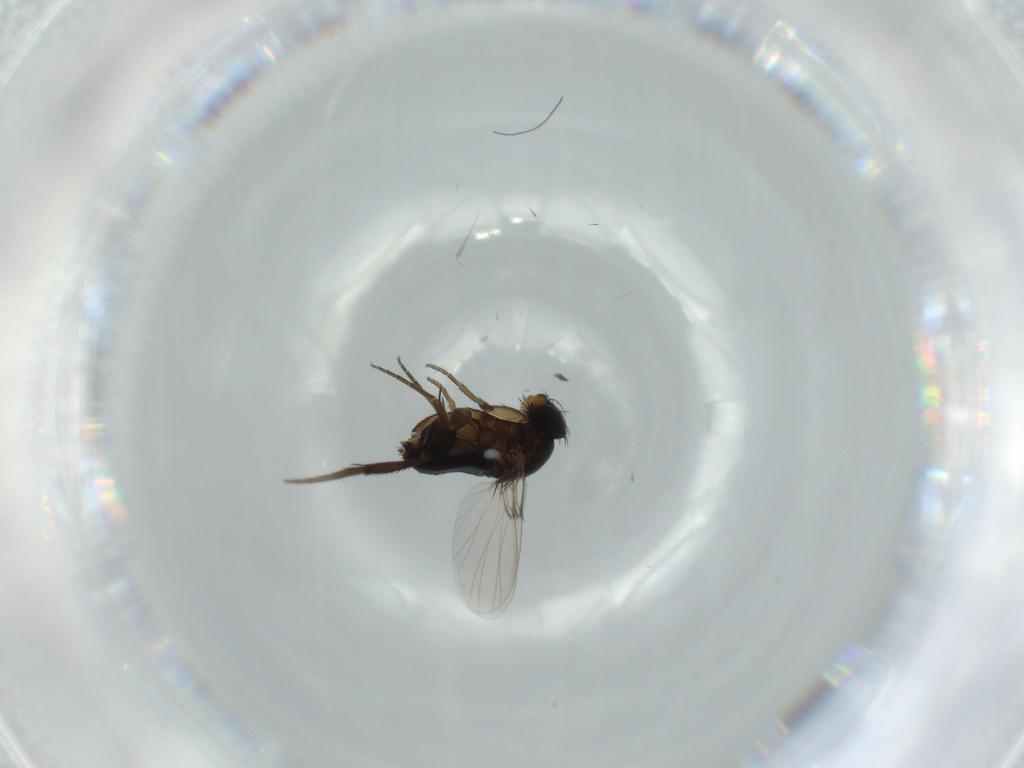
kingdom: Animalia
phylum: Arthropoda
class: Insecta
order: Diptera
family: Phoridae
